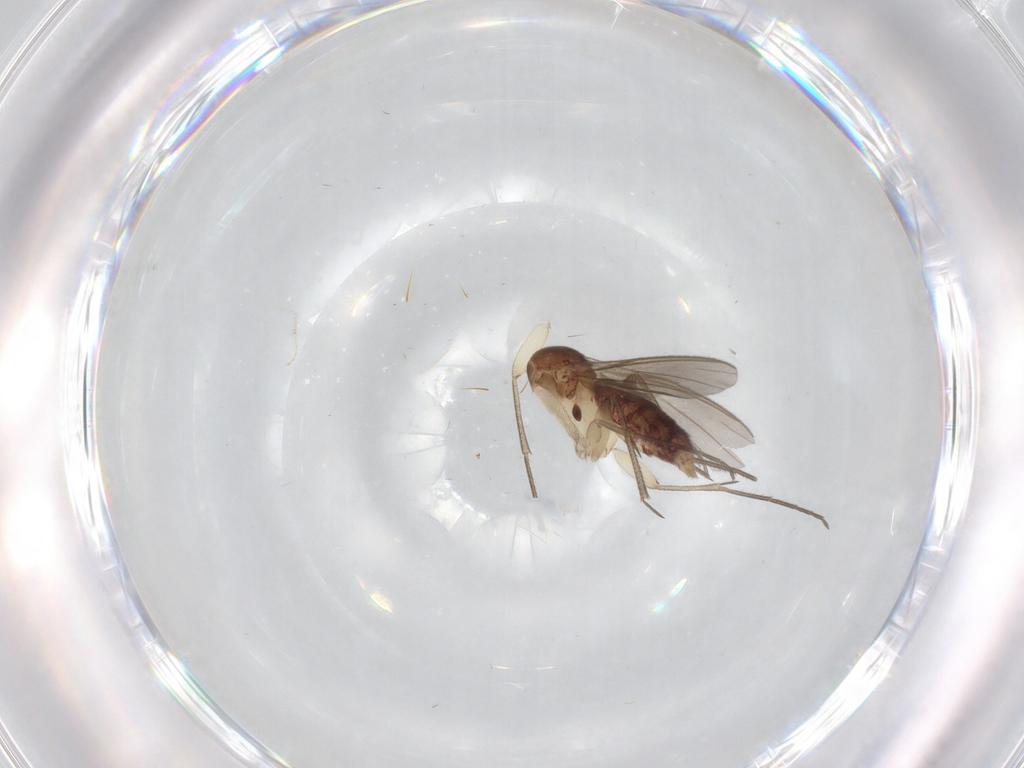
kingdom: Animalia
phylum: Arthropoda
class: Insecta
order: Diptera
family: Mycetophilidae
